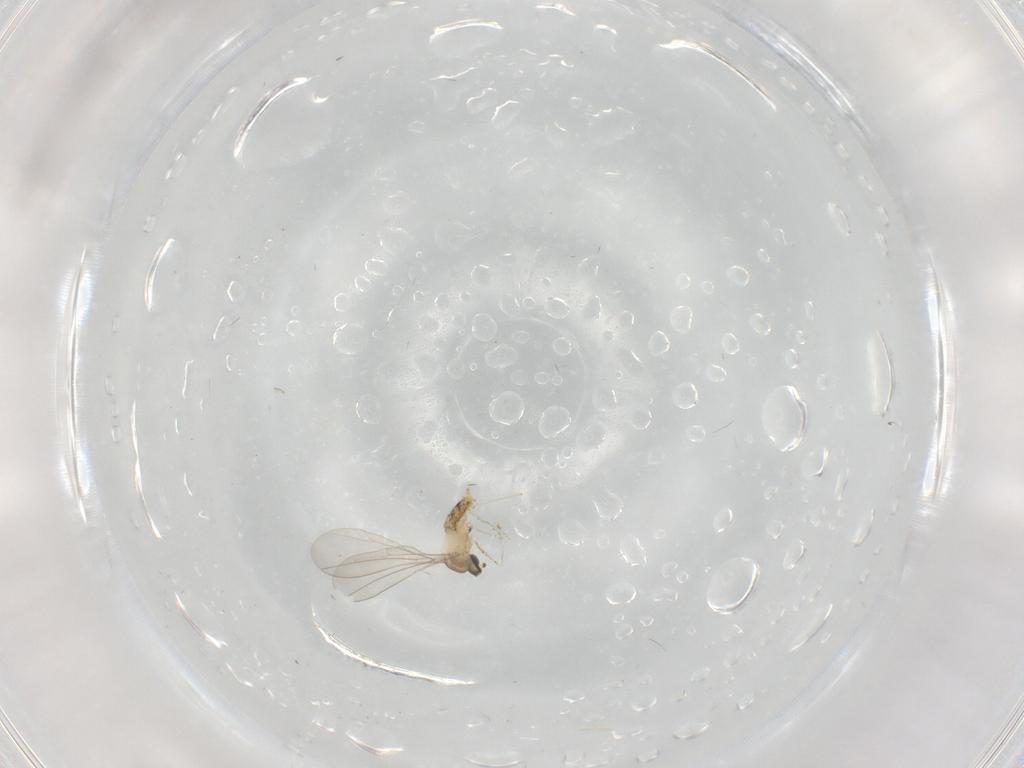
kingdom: Animalia
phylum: Arthropoda
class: Insecta
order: Diptera
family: Cecidomyiidae
